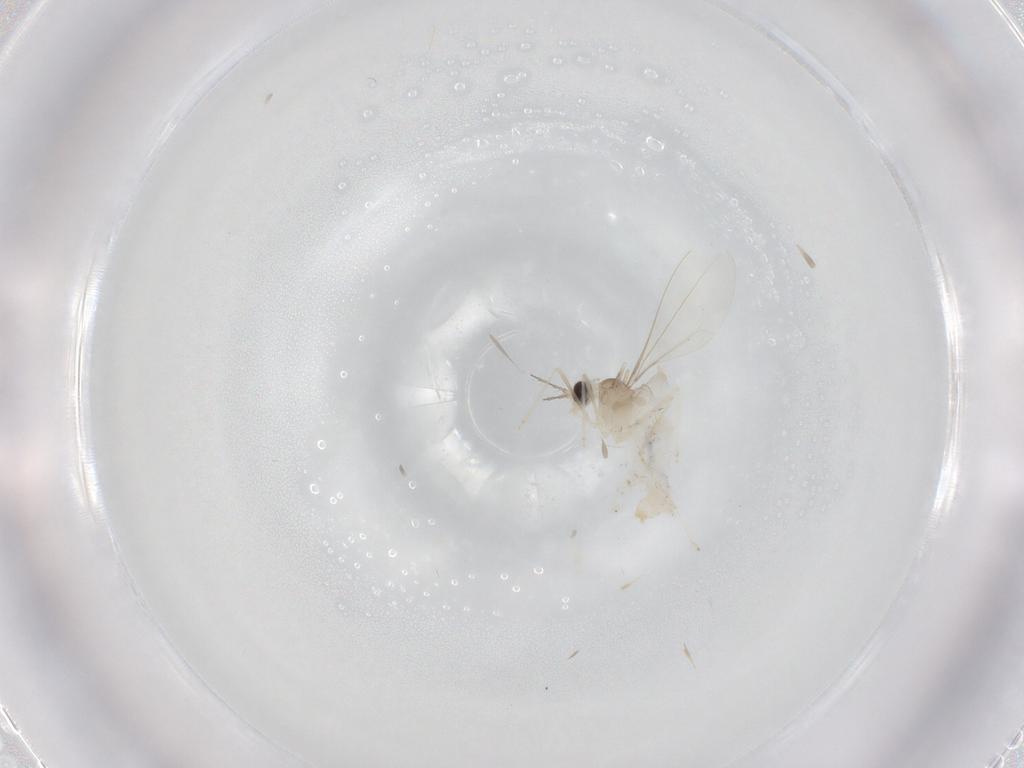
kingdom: Animalia
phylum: Arthropoda
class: Insecta
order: Diptera
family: Cecidomyiidae
